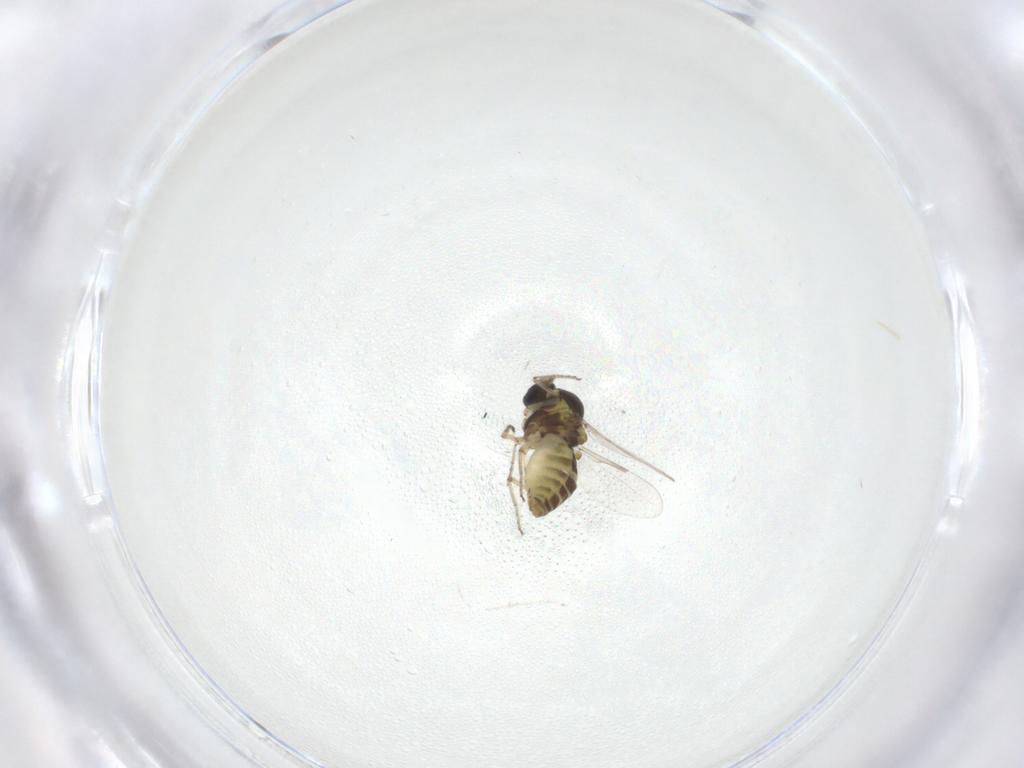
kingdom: Animalia
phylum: Arthropoda
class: Insecta
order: Diptera
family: Ceratopogonidae
